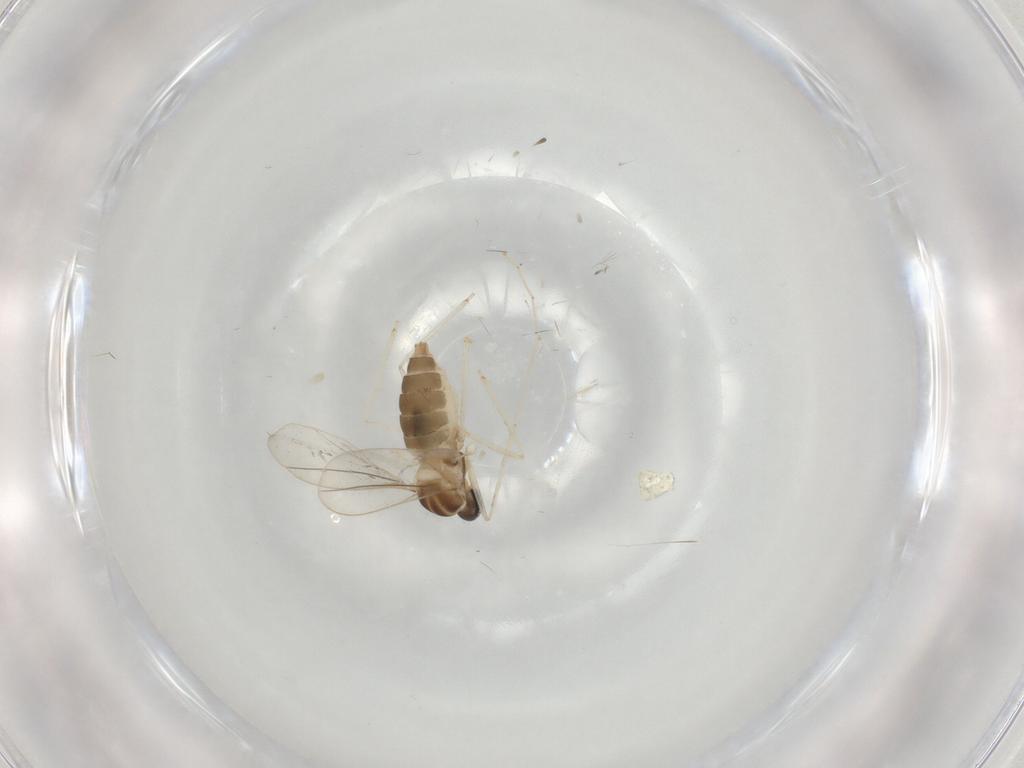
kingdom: Animalia
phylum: Arthropoda
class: Insecta
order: Diptera
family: Cecidomyiidae
